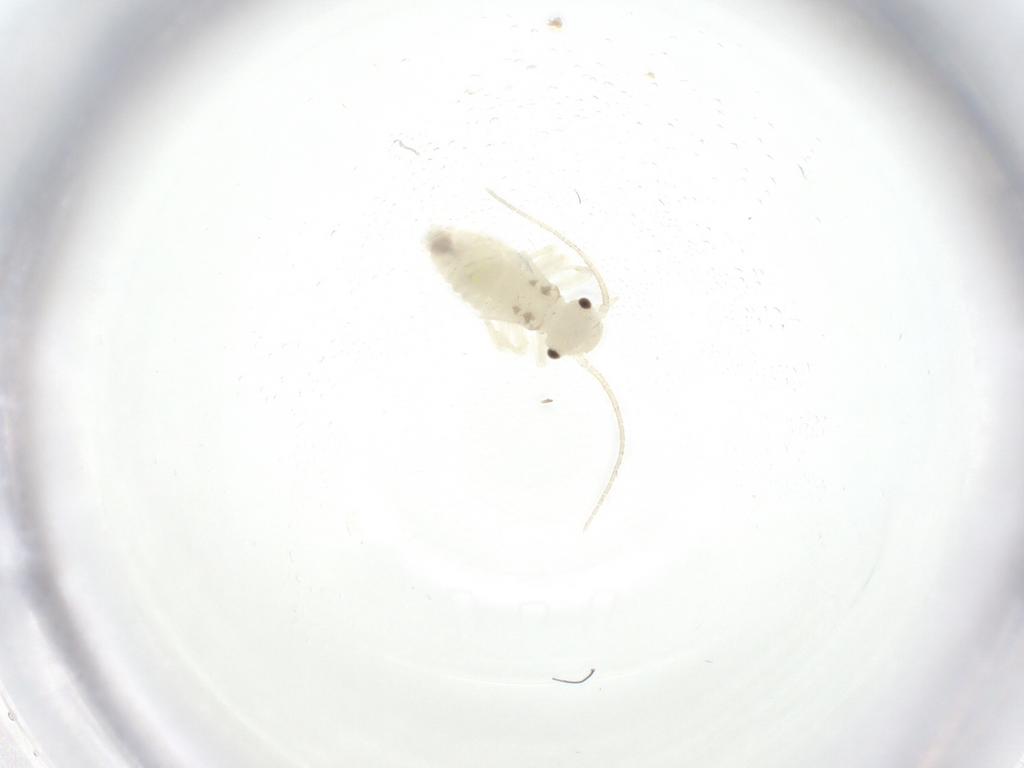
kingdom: Animalia
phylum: Arthropoda
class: Insecta
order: Psocodea
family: Caeciliusidae
